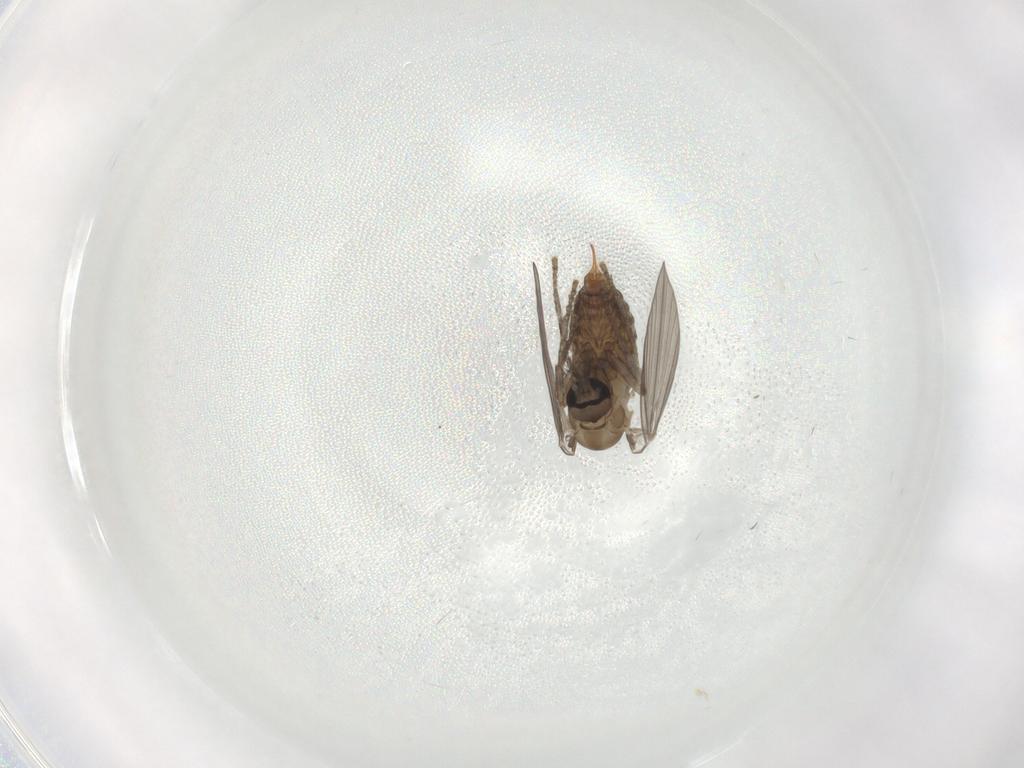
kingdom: Animalia
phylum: Arthropoda
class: Insecta
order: Diptera
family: Psychodidae
